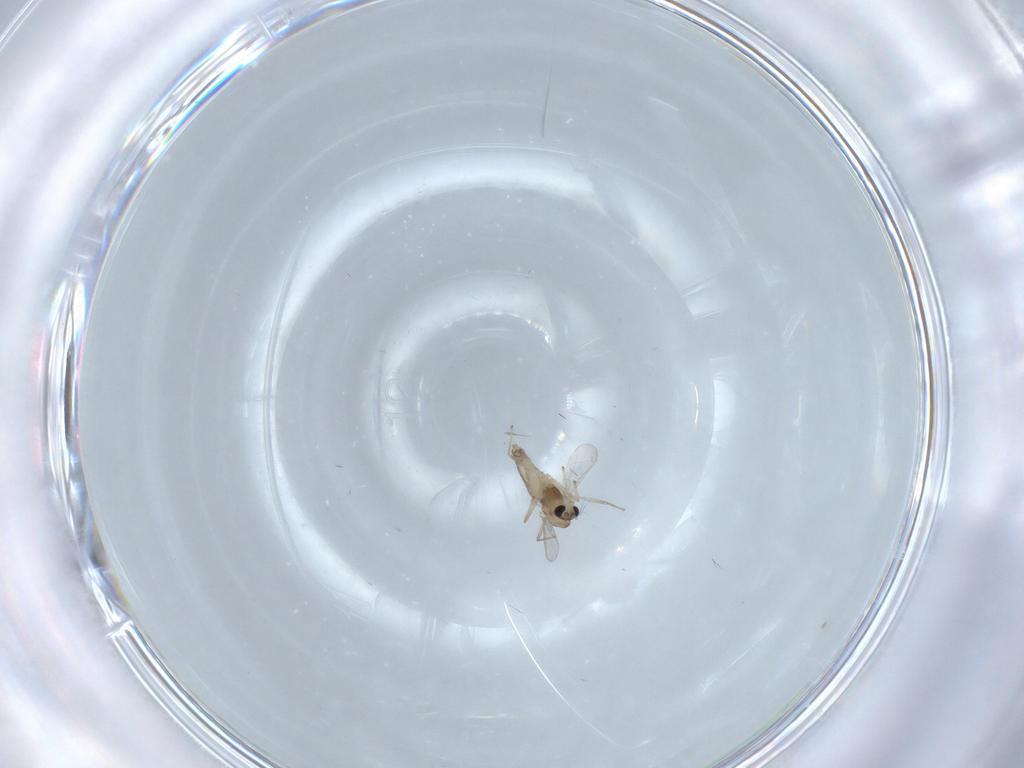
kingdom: Animalia
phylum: Arthropoda
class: Insecta
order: Diptera
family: Chironomidae
